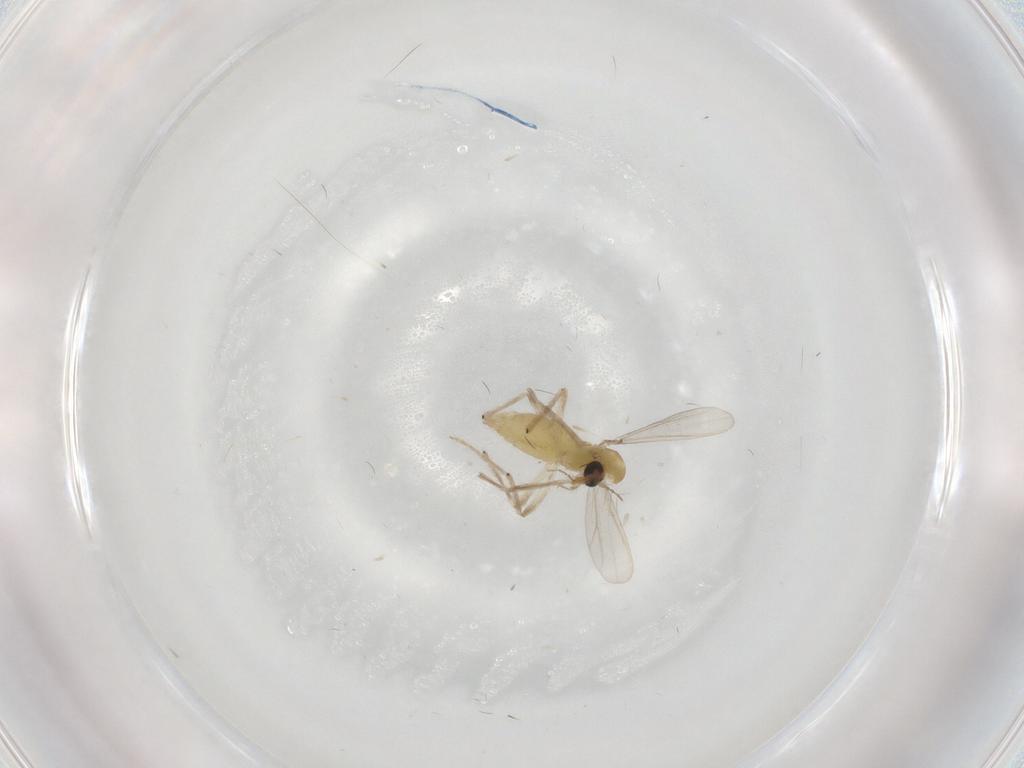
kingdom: Animalia
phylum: Arthropoda
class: Insecta
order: Diptera
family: Chironomidae
